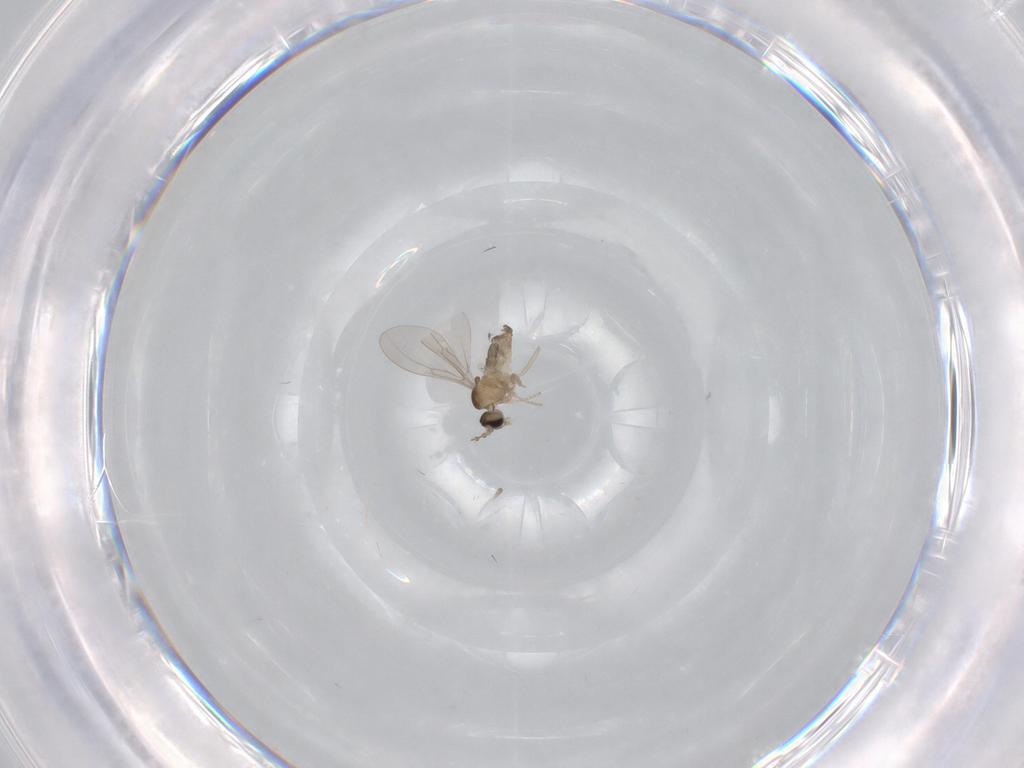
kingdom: Animalia
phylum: Arthropoda
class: Insecta
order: Diptera
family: Cecidomyiidae
